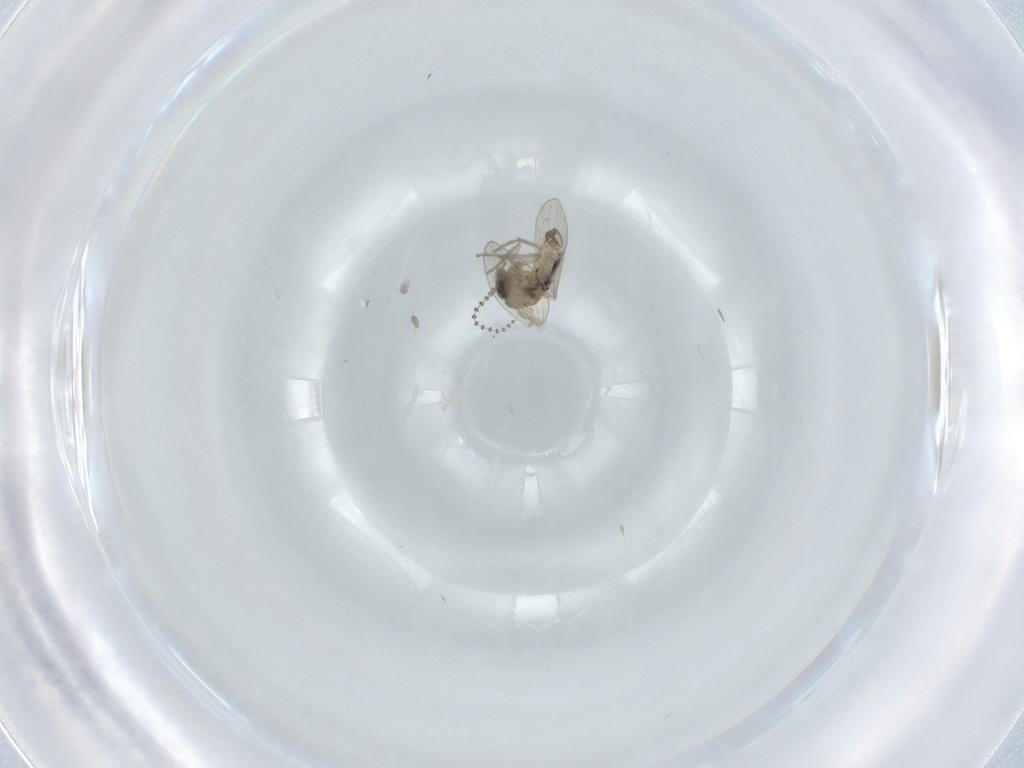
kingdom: Animalia
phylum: Arthropoda
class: Insecta
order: Diptera
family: Psychodidae
